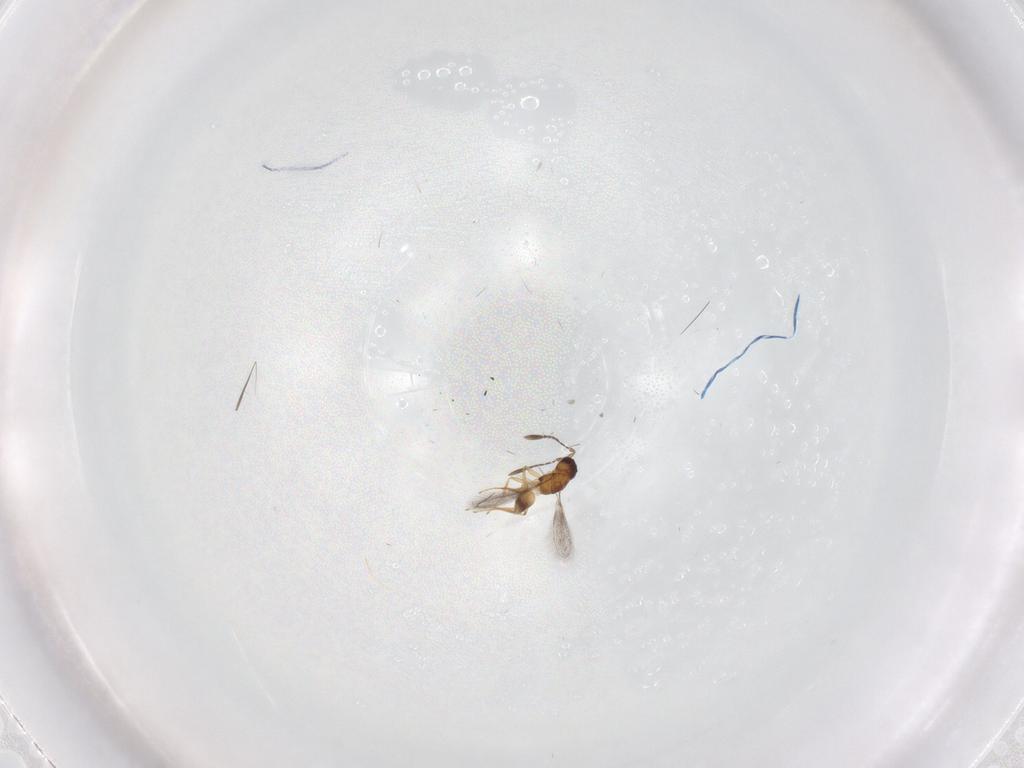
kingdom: Animalia
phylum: Arthropoda
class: Insecta
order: Hymenoptera
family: Mymaridae
